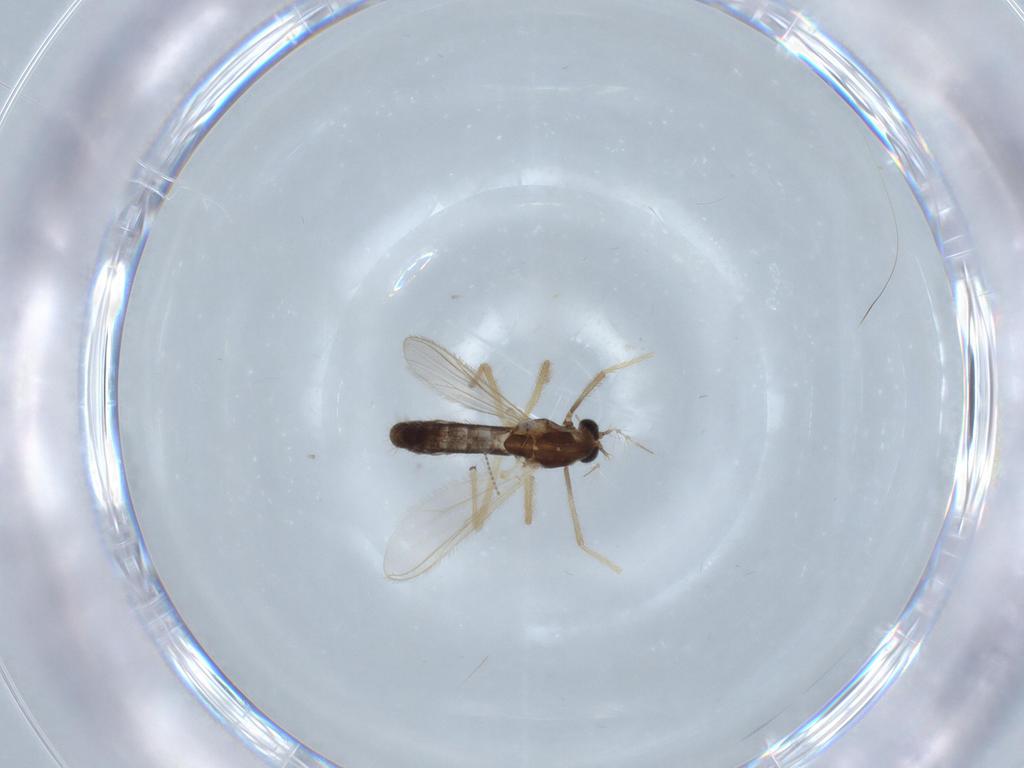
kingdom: Animalia
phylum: Arthropoda
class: Insecta
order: Diptera
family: Chironomidae
